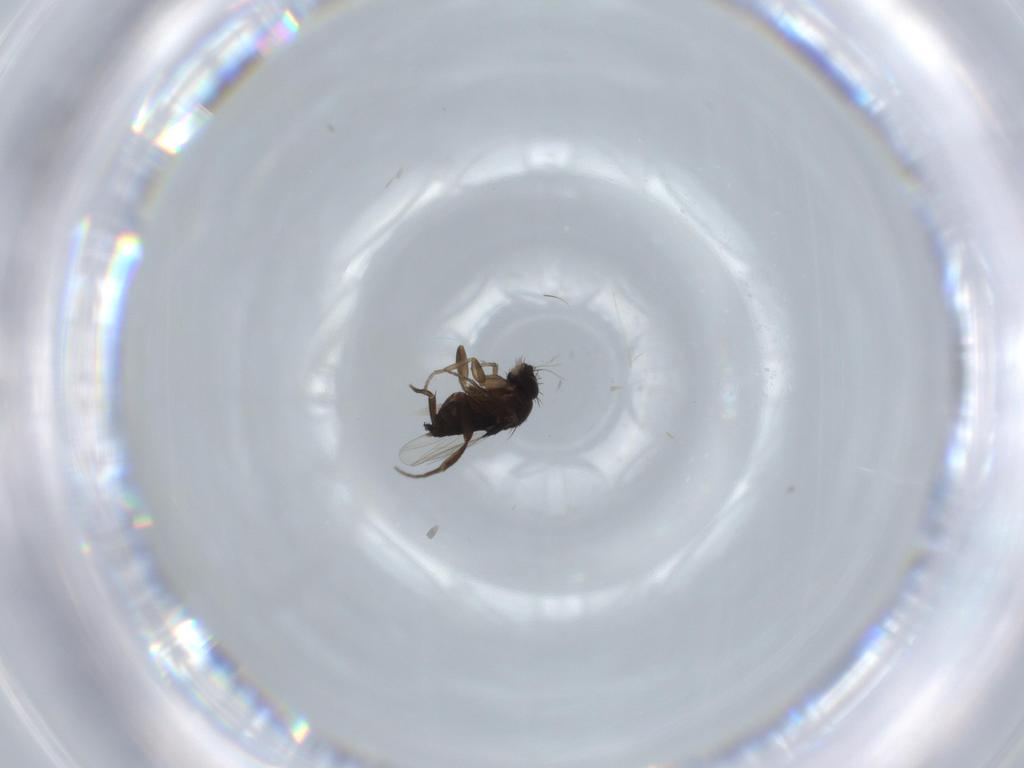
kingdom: Animalia
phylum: Arthropoda
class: Insecta
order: Diptera
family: Phoridae
